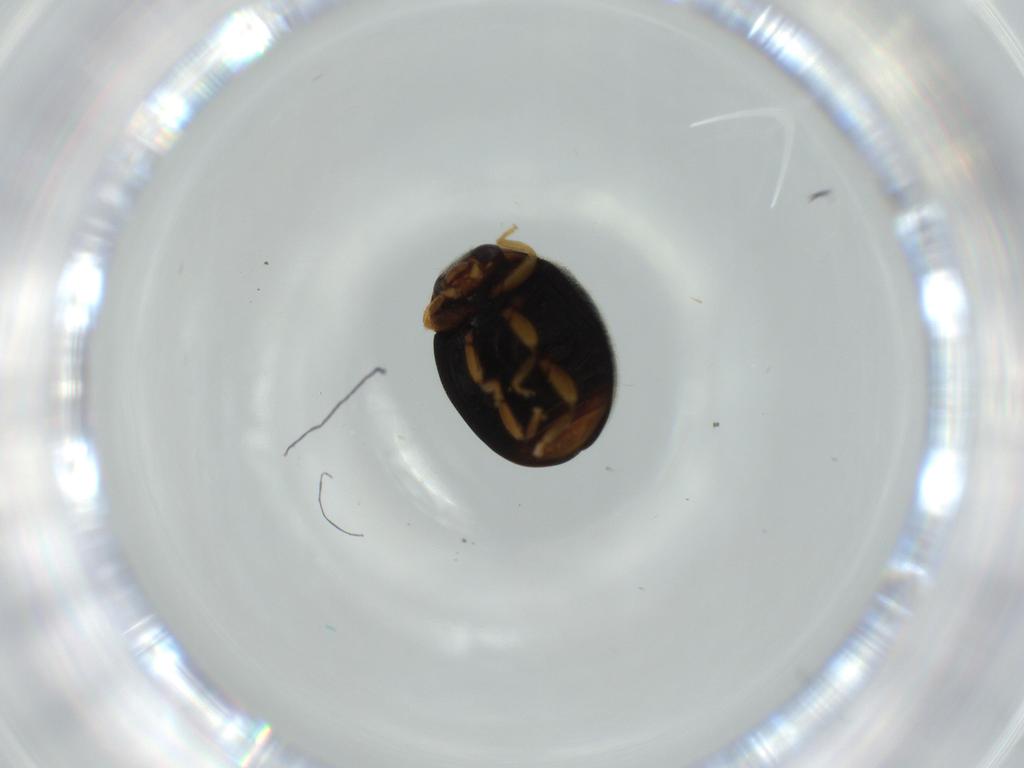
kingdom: Animalia
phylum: Arthropoda
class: Insecta
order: Coleoptera
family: Coccinellidae
